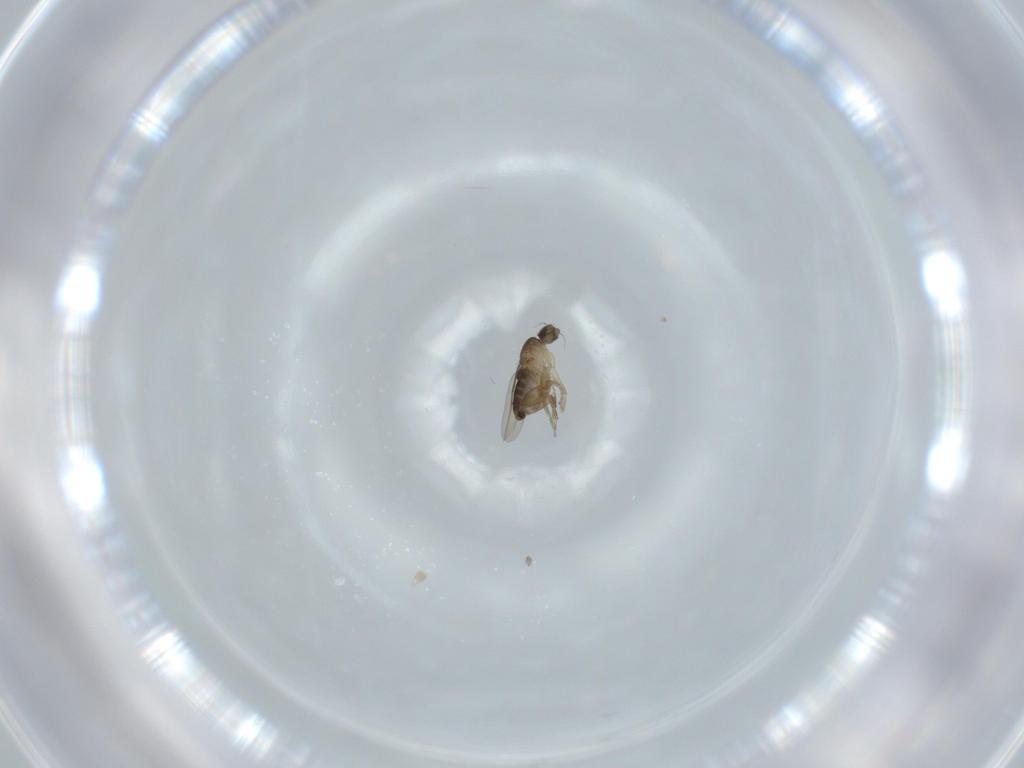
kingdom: Animalia
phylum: Arthropoda
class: Insecta
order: Diptera
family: Phoridae
